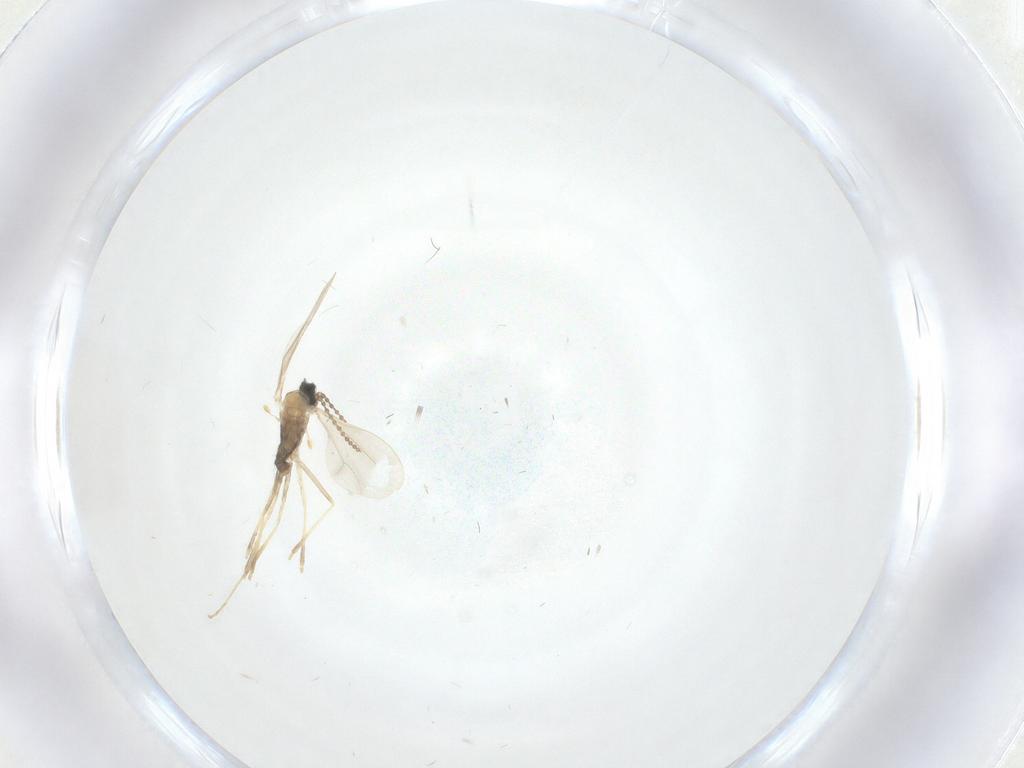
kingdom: Animalia
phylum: Arthropoda
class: Insecta
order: Diptera
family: Cecidomyiidae
